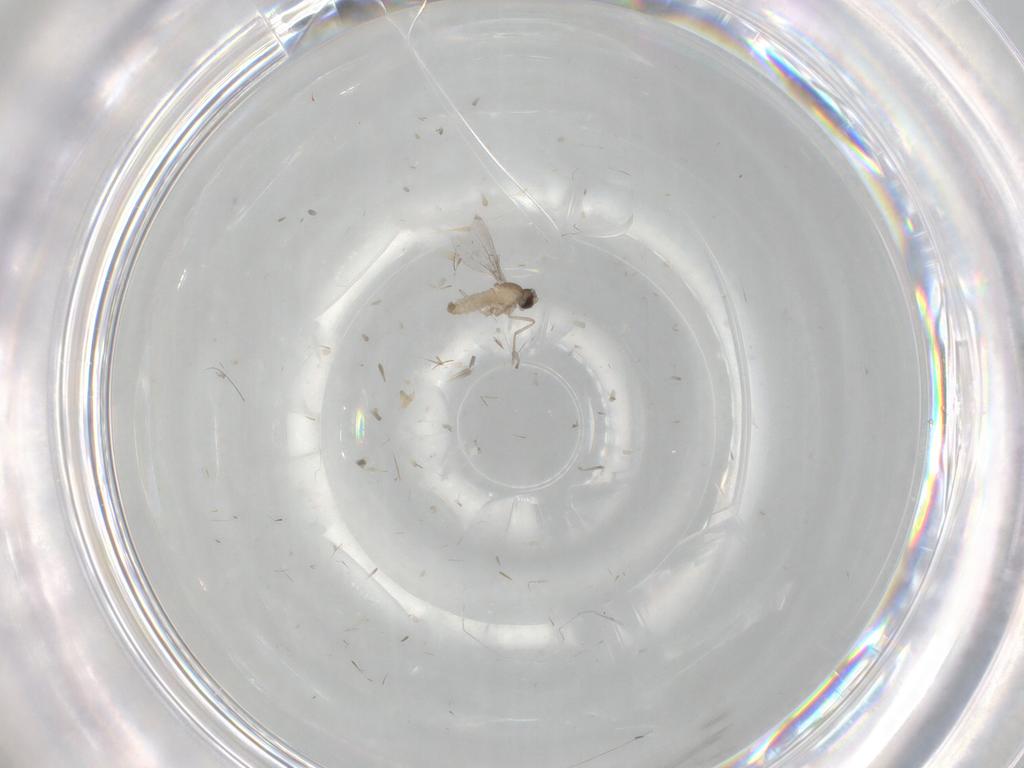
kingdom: Animalia
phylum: Arthropoda
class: Insecta
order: Diptera
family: Cecidomyiidae
